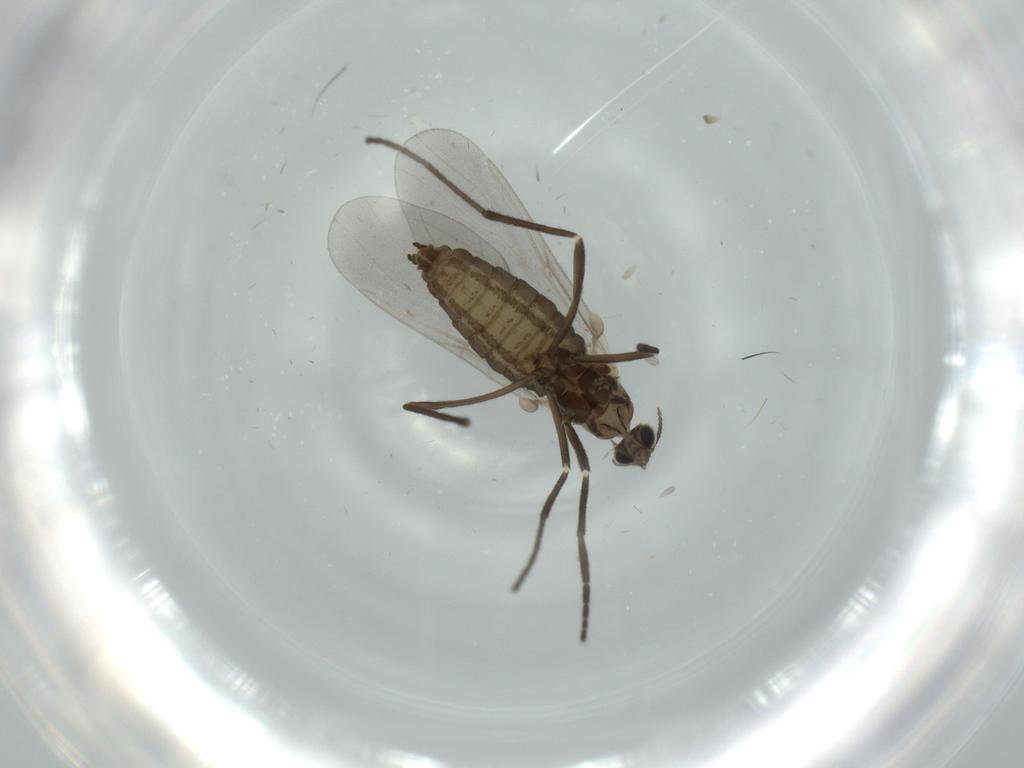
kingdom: Animalia
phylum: Arthropoda
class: Insecta
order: Diptera
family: Cecidomyiidae
